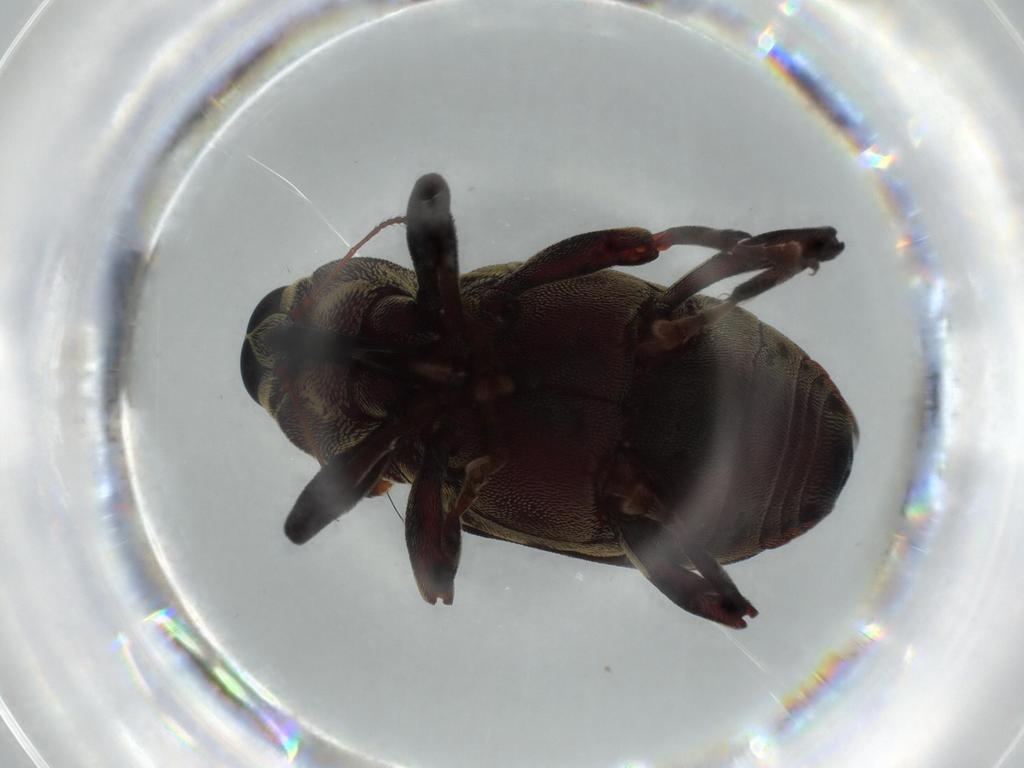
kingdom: Animalia
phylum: Arthropoda
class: Insecta
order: Coleoptera
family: Curculionidae
